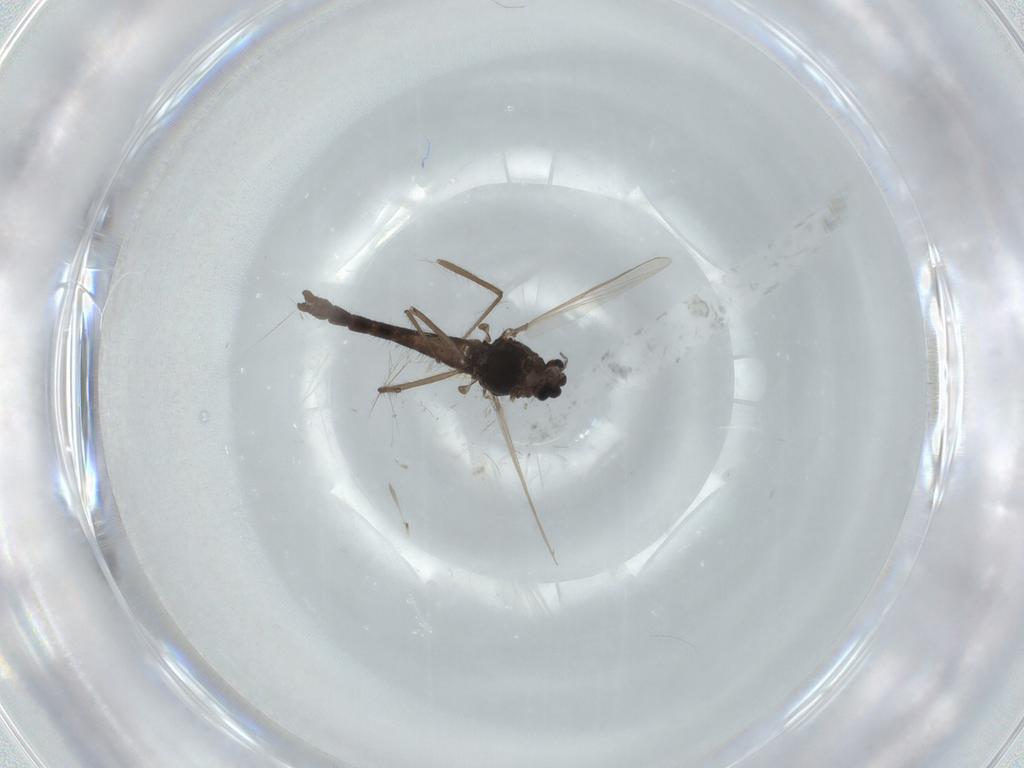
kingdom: Animalia
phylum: Arthropoda
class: Insecta
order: Diptera
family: Chironomidae
